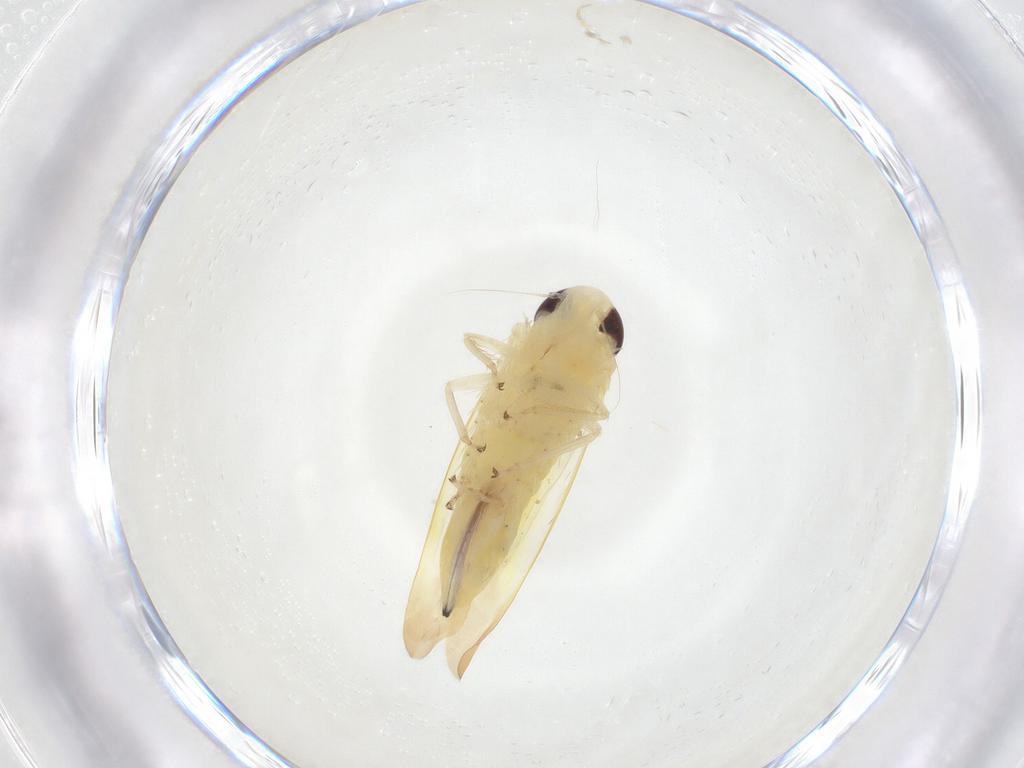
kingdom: Animalia
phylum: Arthropoda
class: Insecta
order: Hemiptera
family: Cicadellidae
